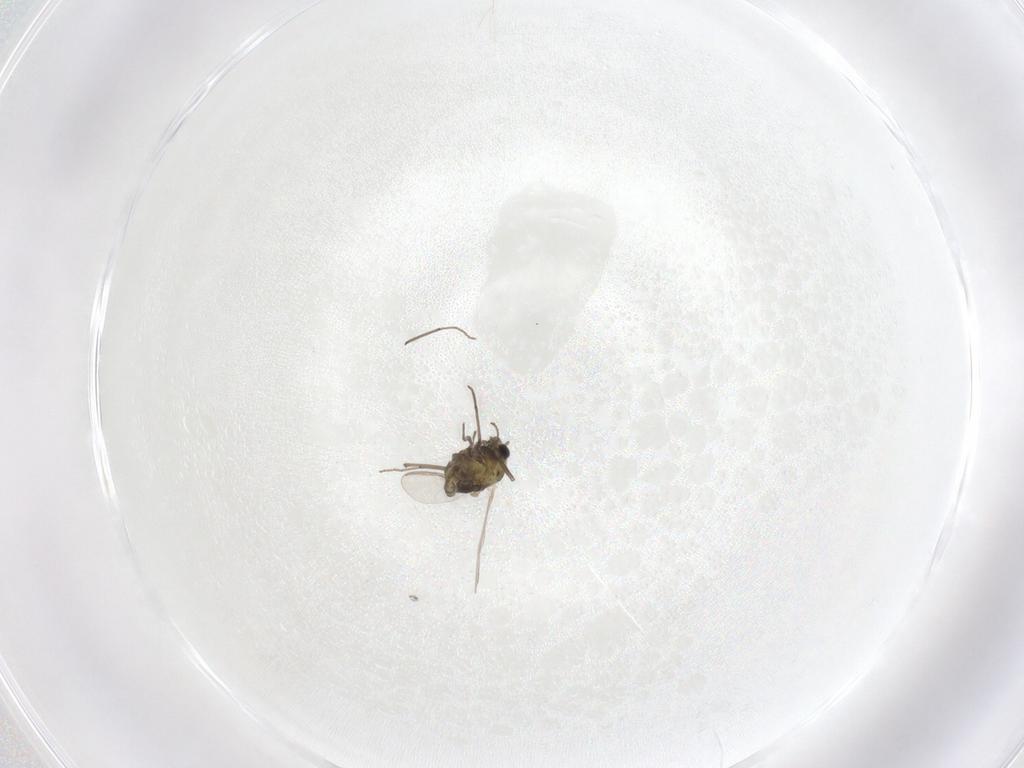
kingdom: Animalia
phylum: Arthropoda
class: Insecta
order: Diptera
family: Chironomidae
